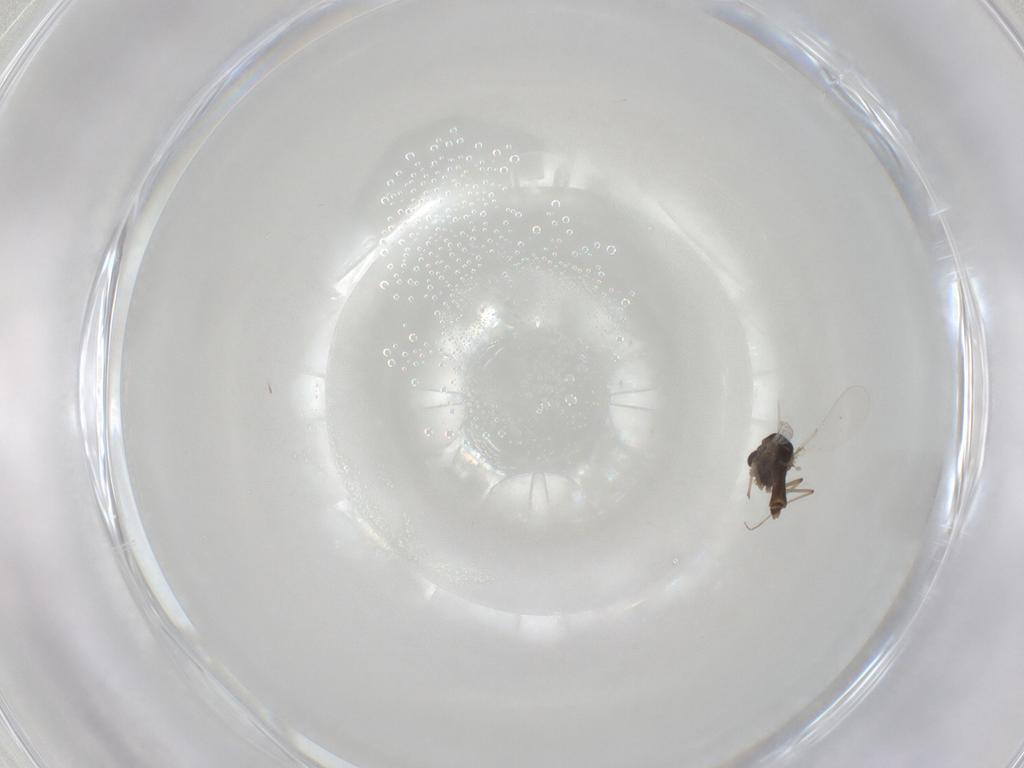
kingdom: Animalia
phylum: Arthropoda
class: Insecta
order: Diptera
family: Chironomidae
